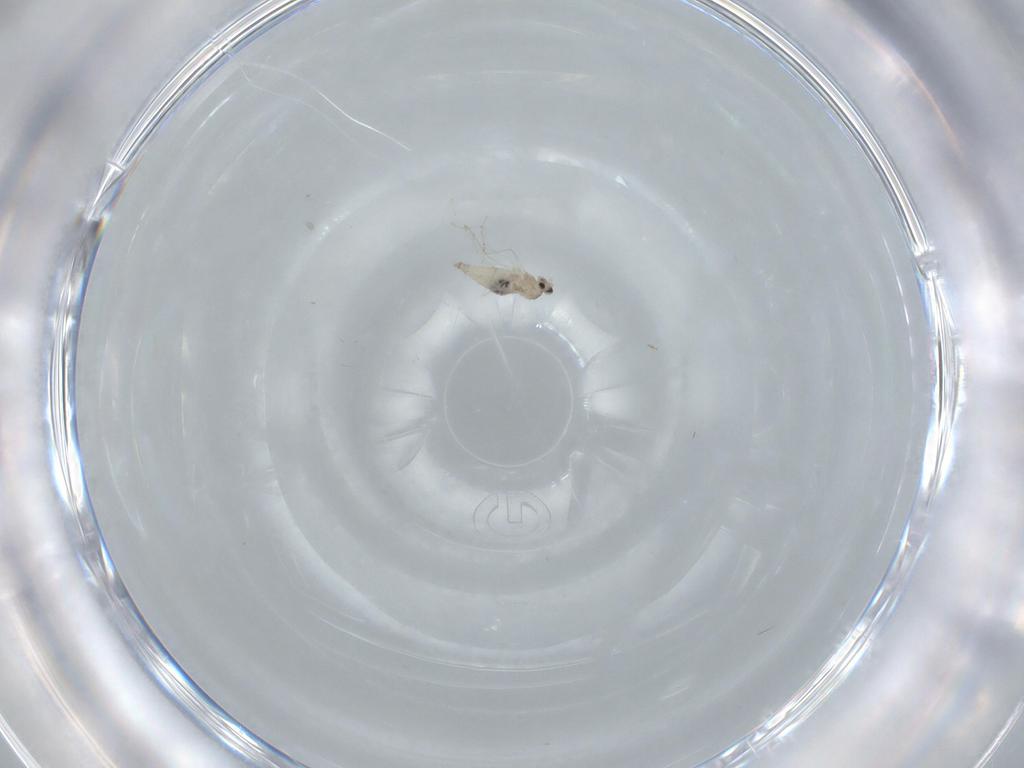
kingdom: Animalia
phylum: Arthropoda
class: Insecta
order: Diptera
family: Cecidomyiidae
